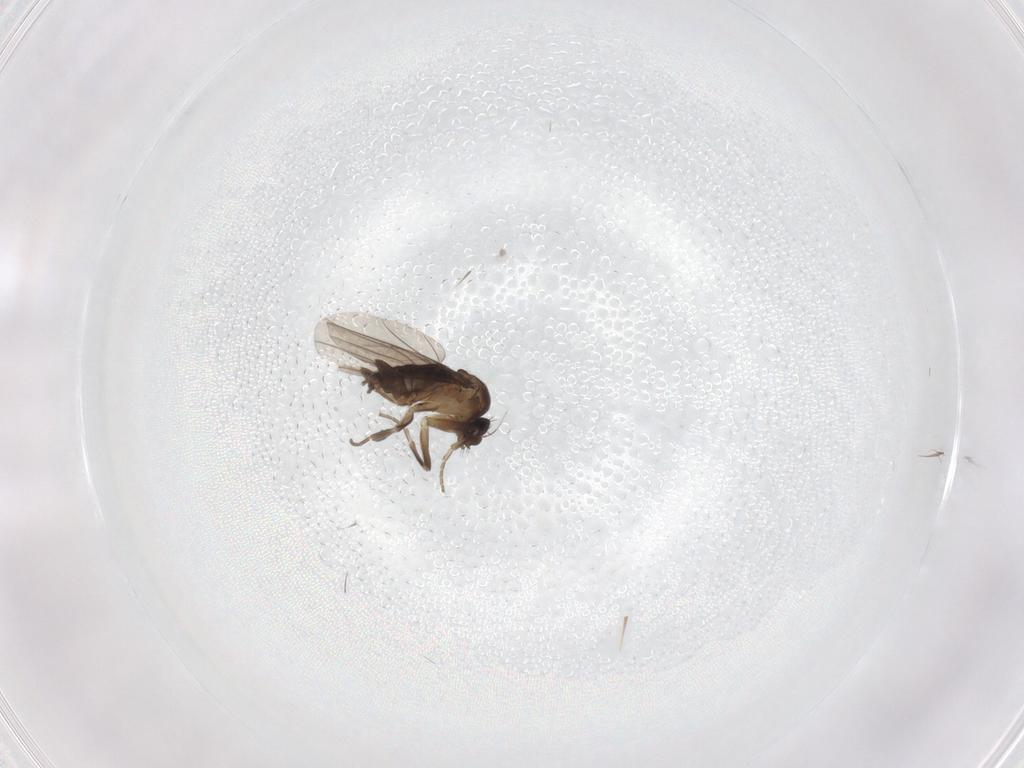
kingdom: Animalia
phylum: Arthropoda
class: Insecta
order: Diptera
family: Phoridae
